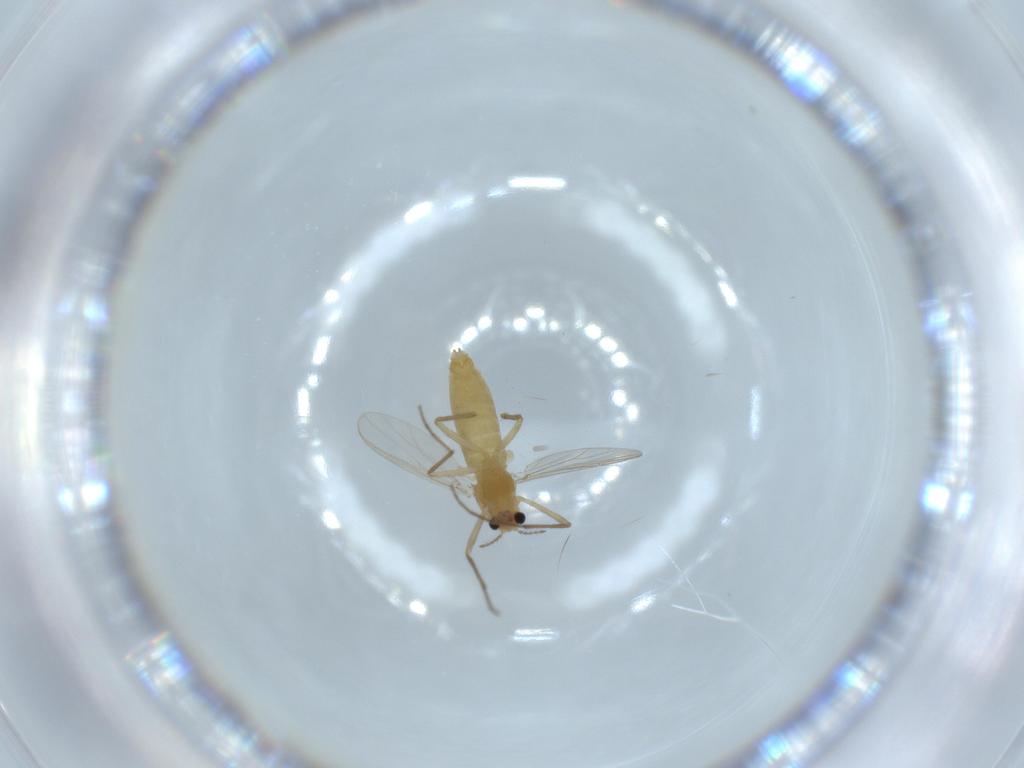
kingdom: Animalia
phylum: Arthropoda
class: Insecta
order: Diptera
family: Chironomidae
